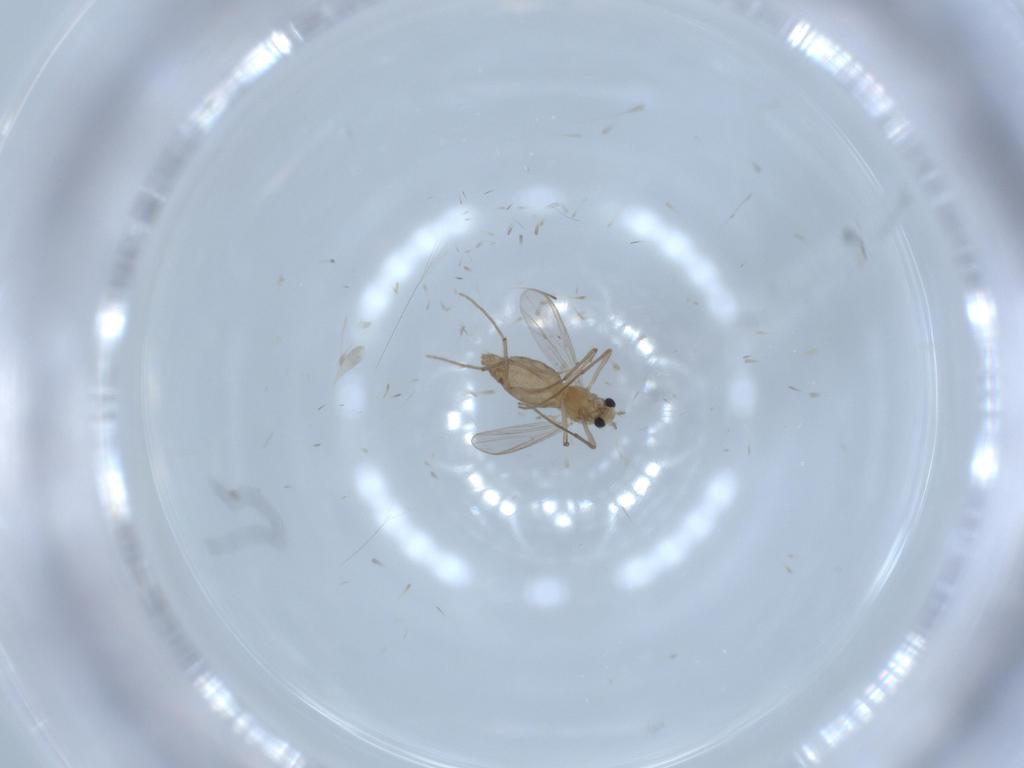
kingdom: Animalia
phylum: Arthropoda
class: Insecta
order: Diptera
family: Chironomidae
